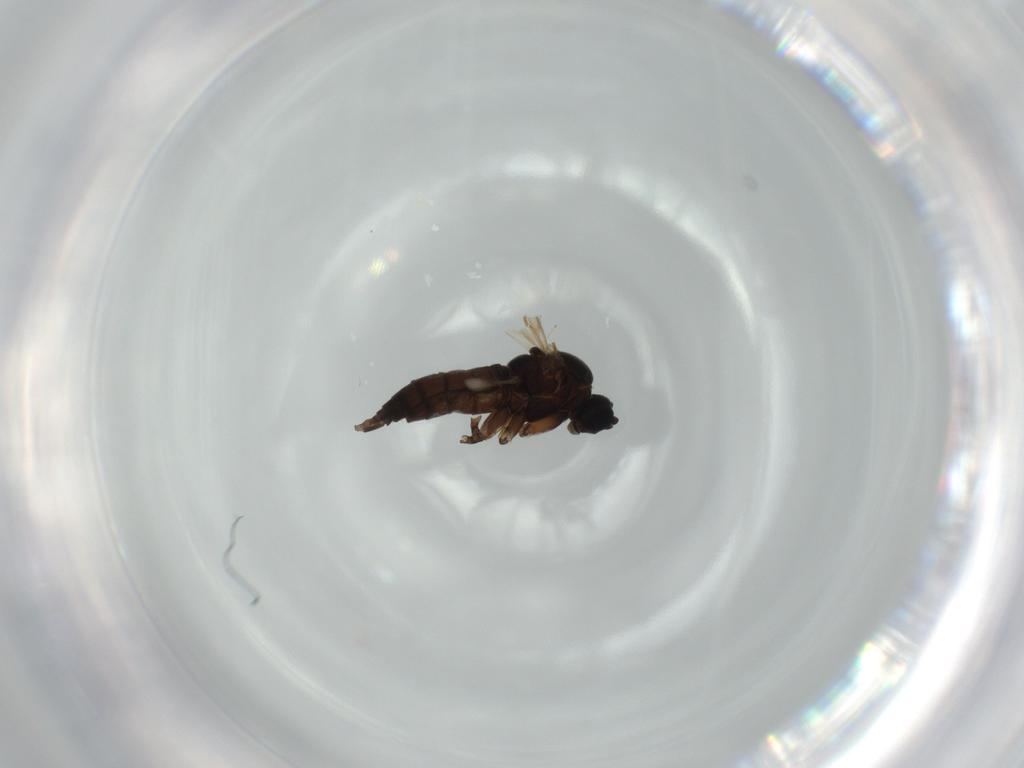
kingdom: Animalia
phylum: Arthropoda
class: Insecta
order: Diptera
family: Sciaridae
